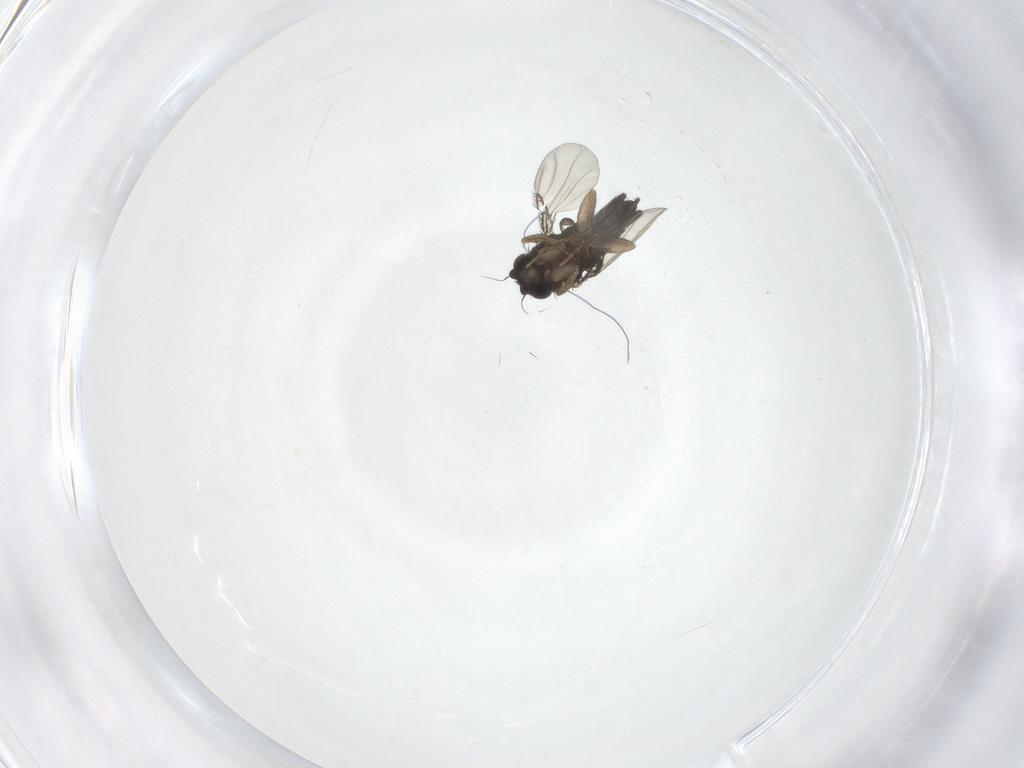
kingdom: Animalia
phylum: Arthropoda
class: Insecta
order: Diptera
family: Phoridae
